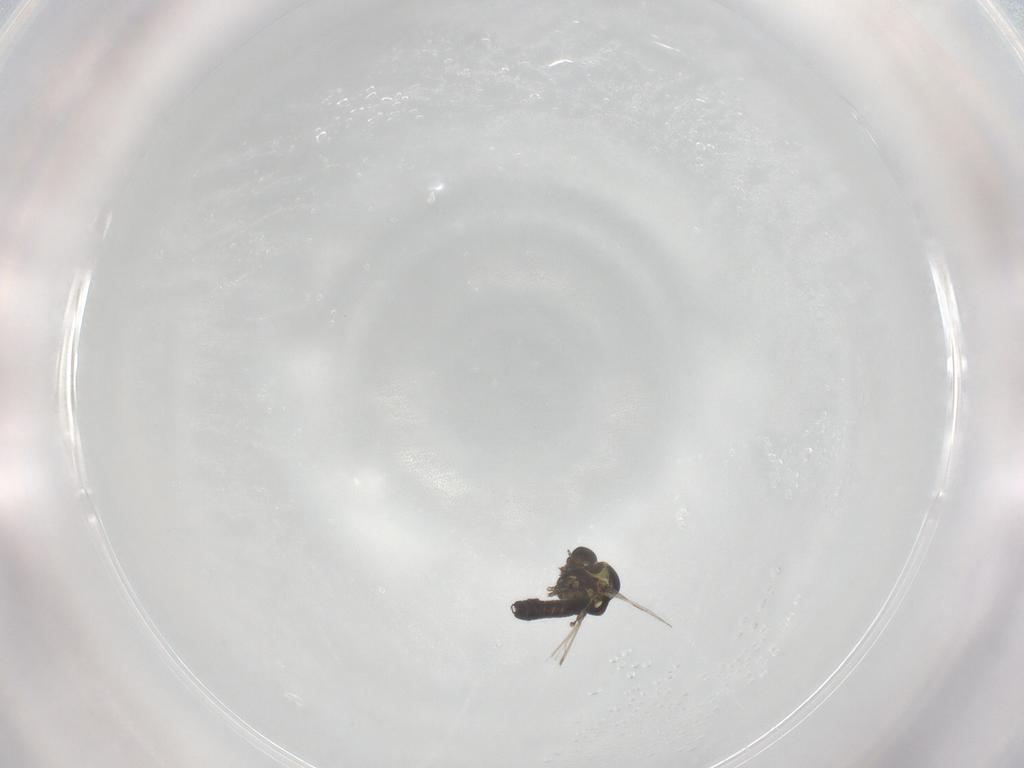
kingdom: Animalia
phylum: Arthropoda
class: Insecta
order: Diptera
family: Ceratopogonidae
